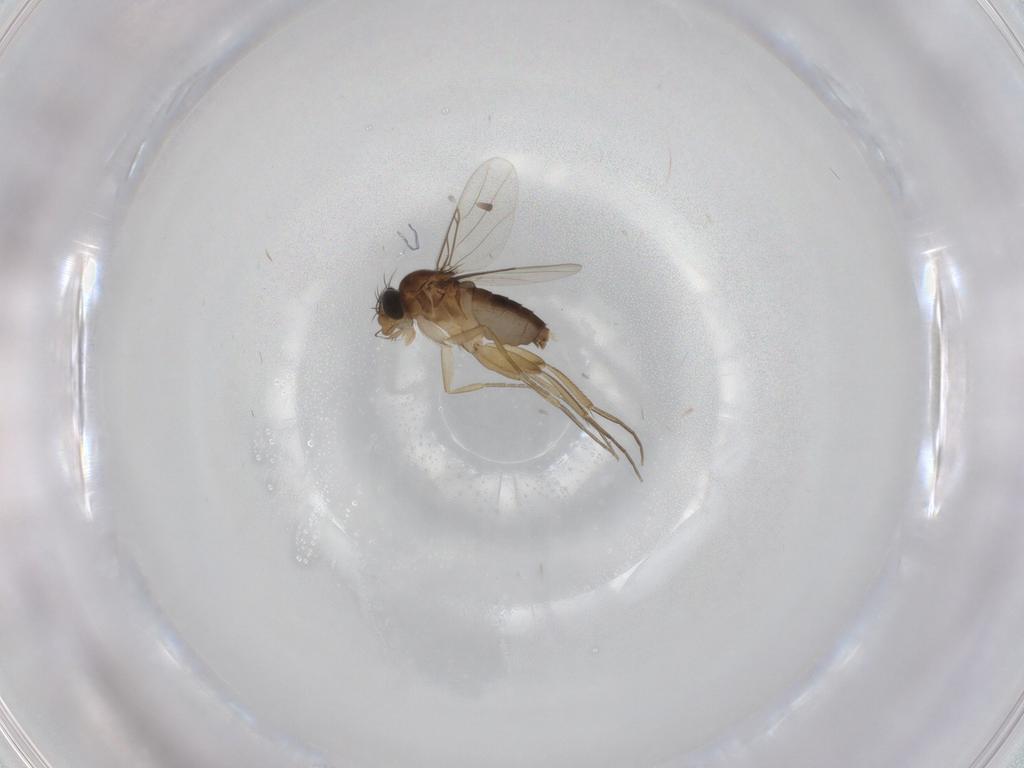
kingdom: Animalia
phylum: Arthropoda
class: Insecta
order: Diptera
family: Phoridae
